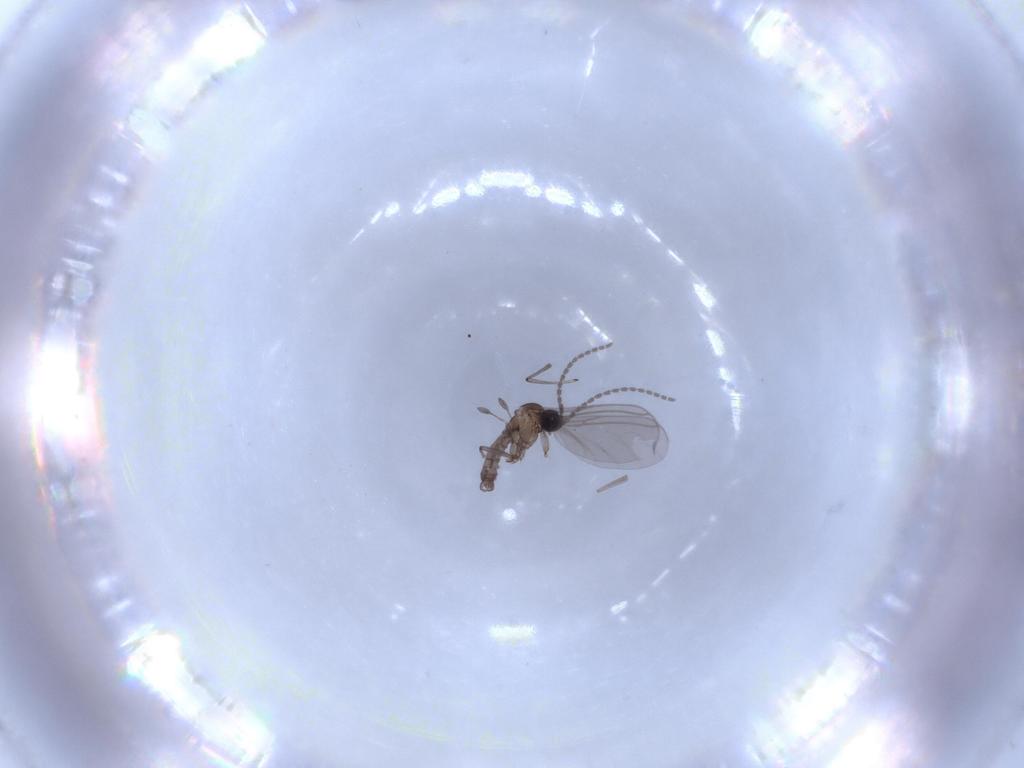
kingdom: Animalia
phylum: Arthropoda
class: Insecta
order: Diptera
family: Sciaridae
